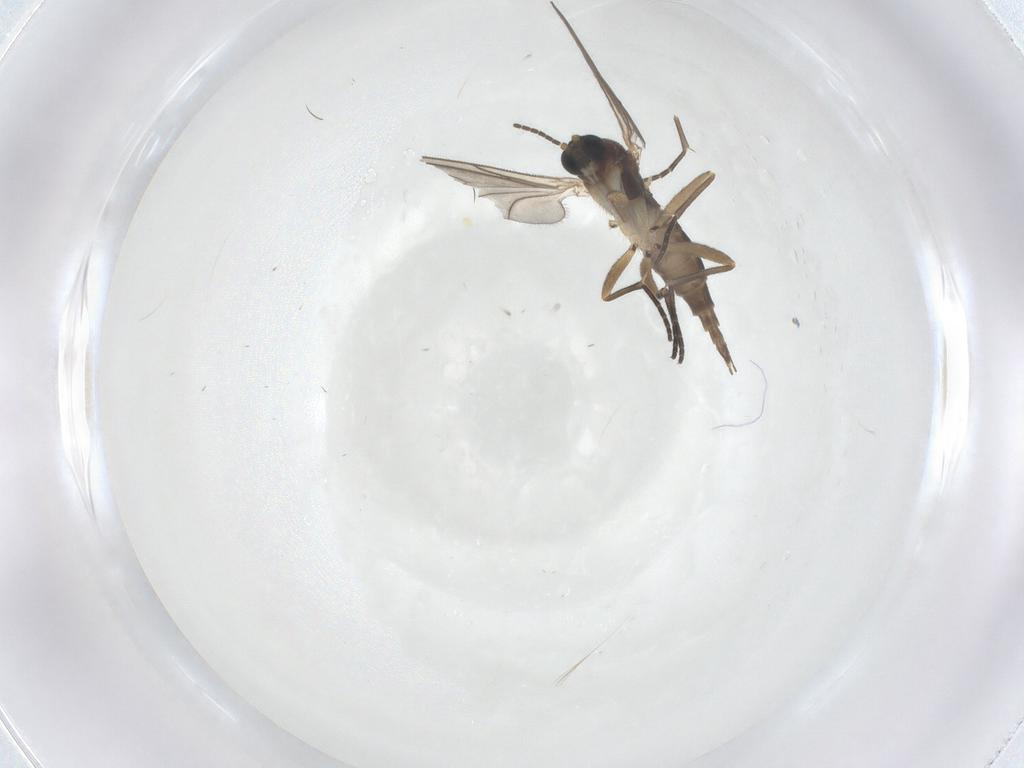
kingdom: Animalia
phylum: Arthropoda
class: Insecta
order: Diptera
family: Sciaridae
